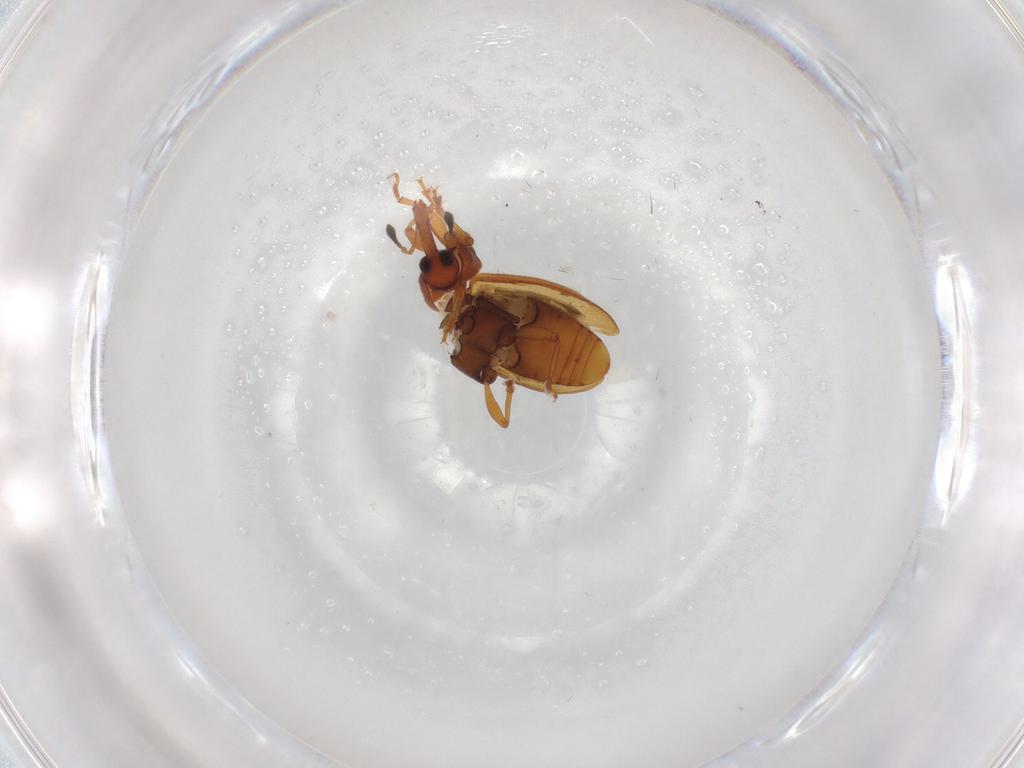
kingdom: Animalia
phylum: Arthropoda
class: Insecta
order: Coleoptera
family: Curculionidae
